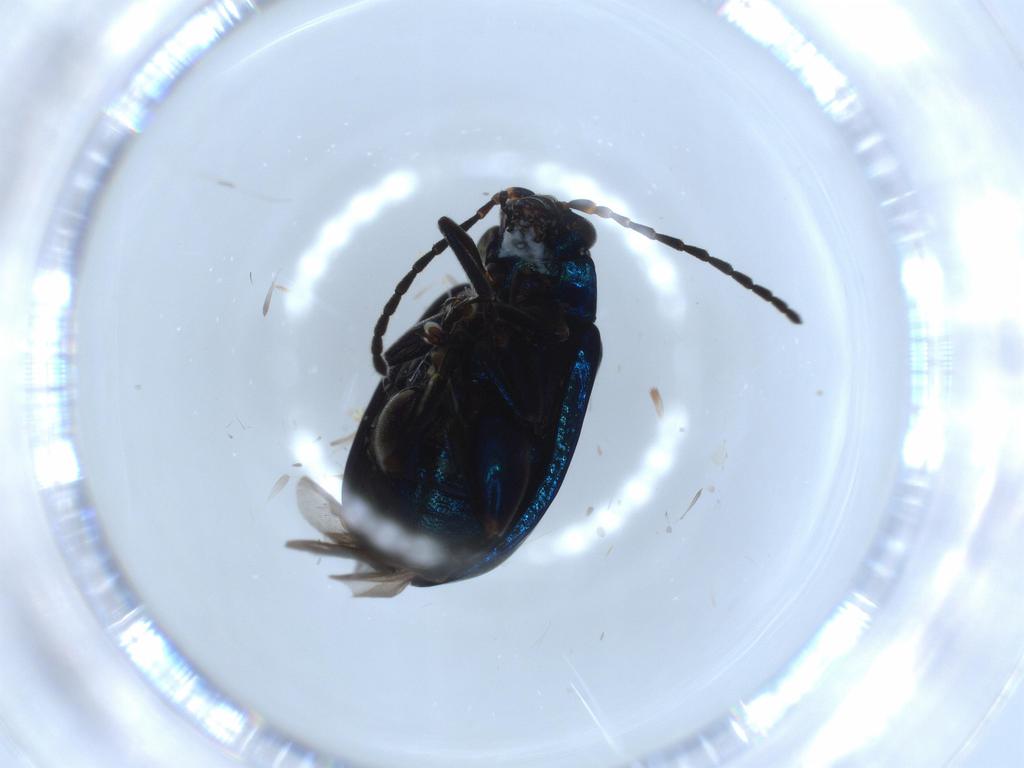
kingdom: Animalia
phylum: Arthropoda
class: Insecta
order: Coleoptera
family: Chrysomelidae
